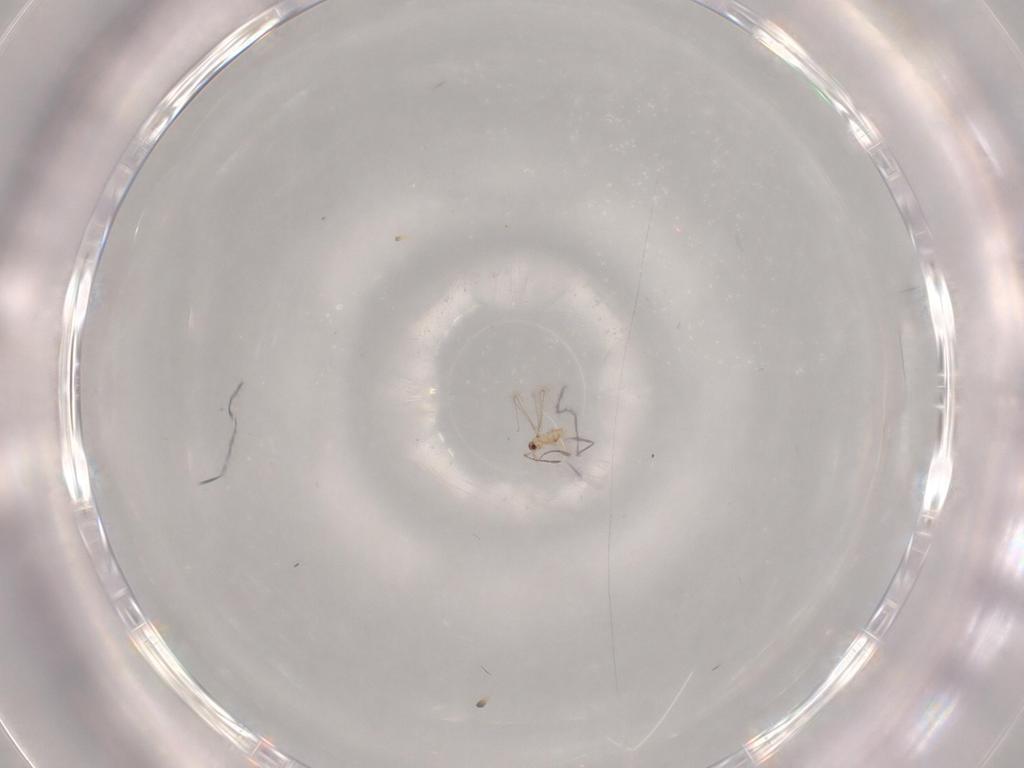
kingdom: Animalia
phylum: Arthropoda
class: Insecta
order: Hymenoptera
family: Mymaridae
